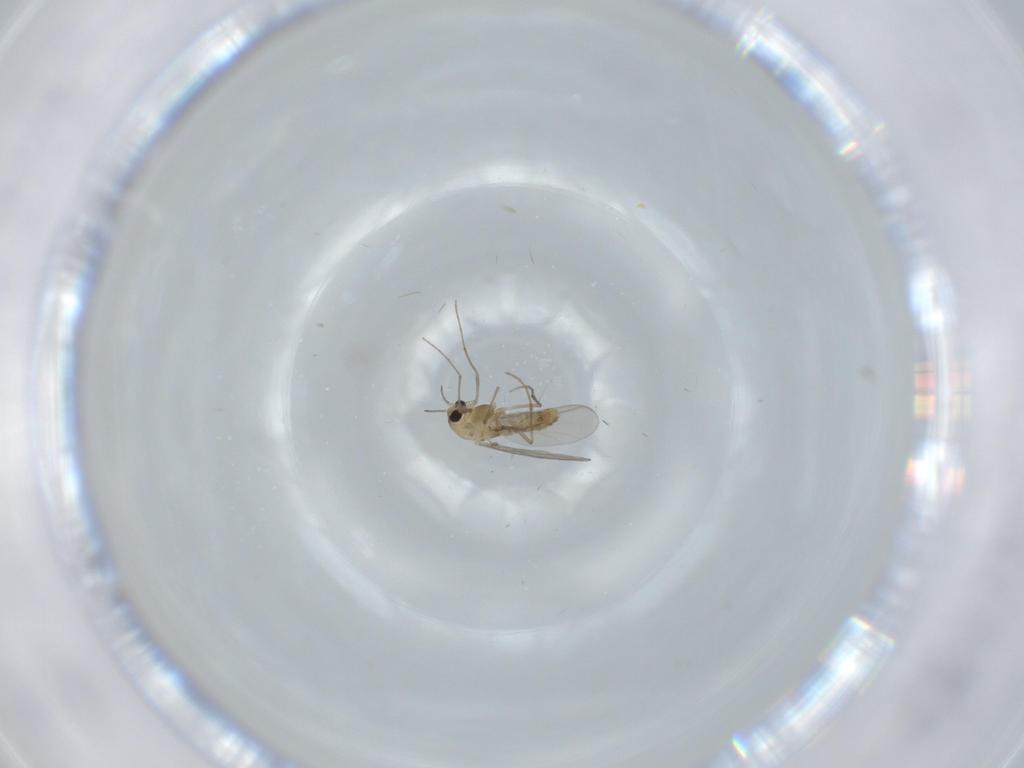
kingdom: Animalia
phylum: Arthropoda
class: Insecta
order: Diptera
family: Chironomidae
